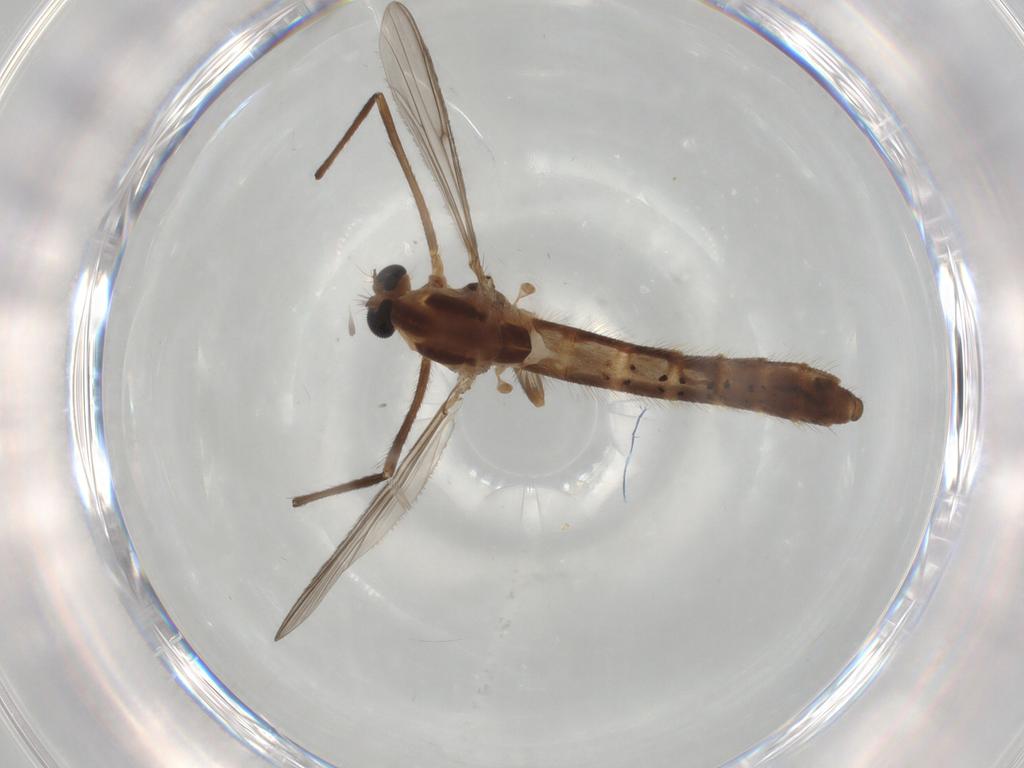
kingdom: Animalia
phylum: Arthropoda
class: Insecta
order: Diptera
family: Chironomidae
